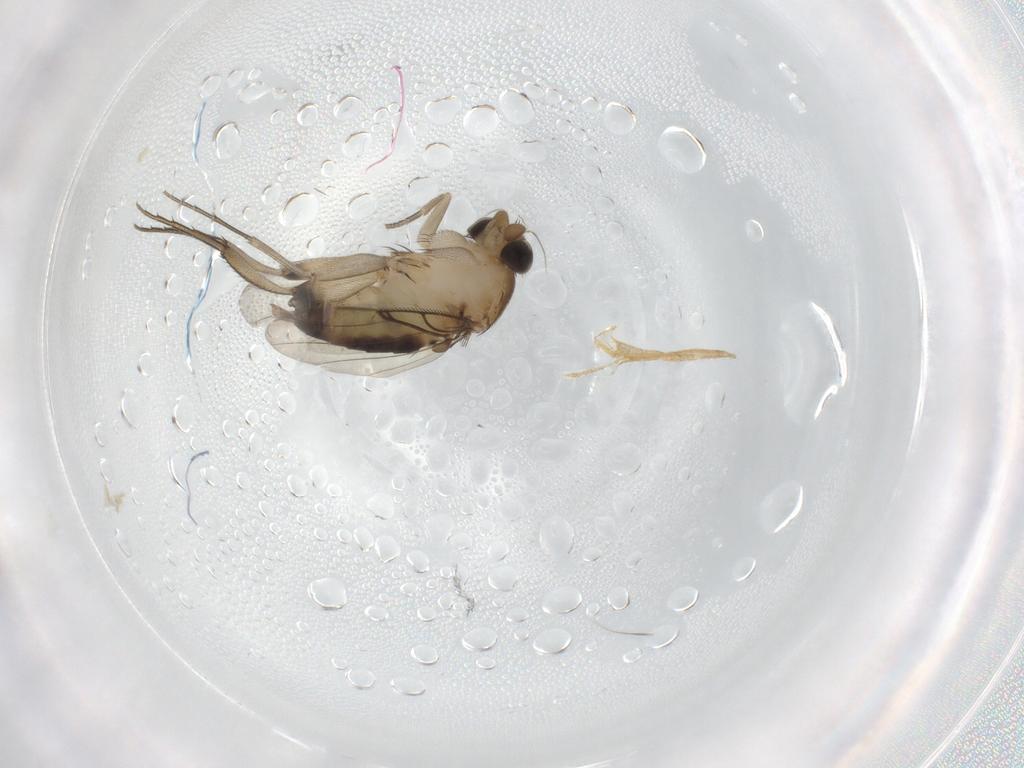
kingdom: Animalia
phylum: Arthropoda
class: Insecta
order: Diptera
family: Phoridae
